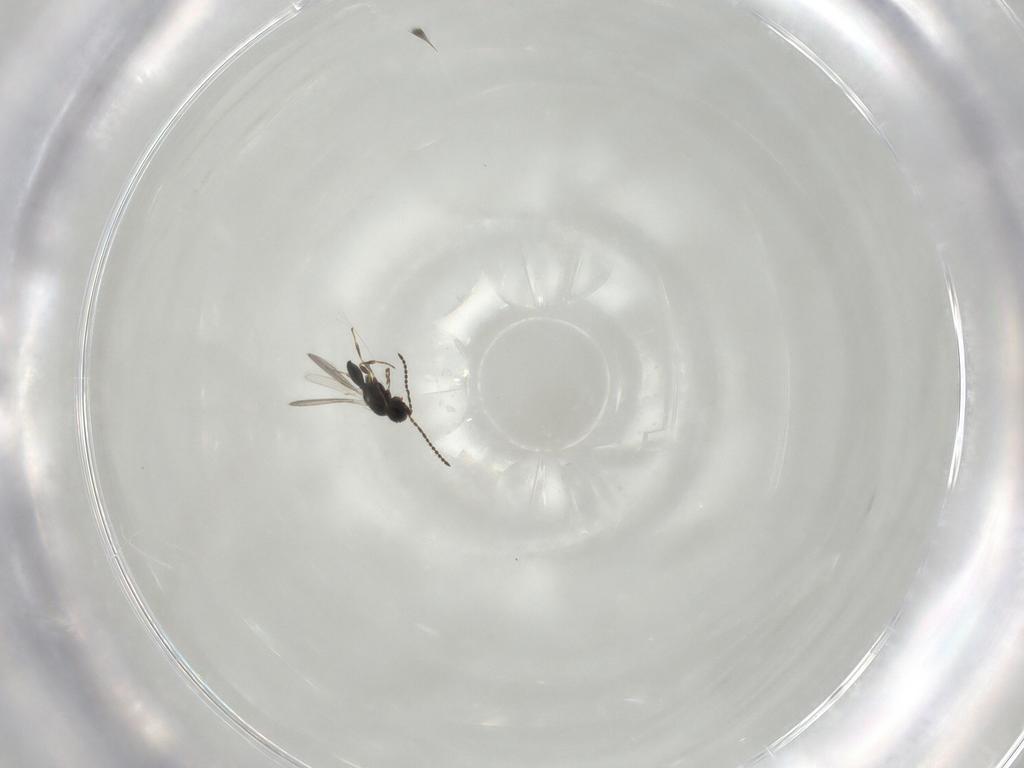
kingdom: Animalia
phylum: Arthropoda
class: Insecta
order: Hymenoptera
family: Scelionidae
